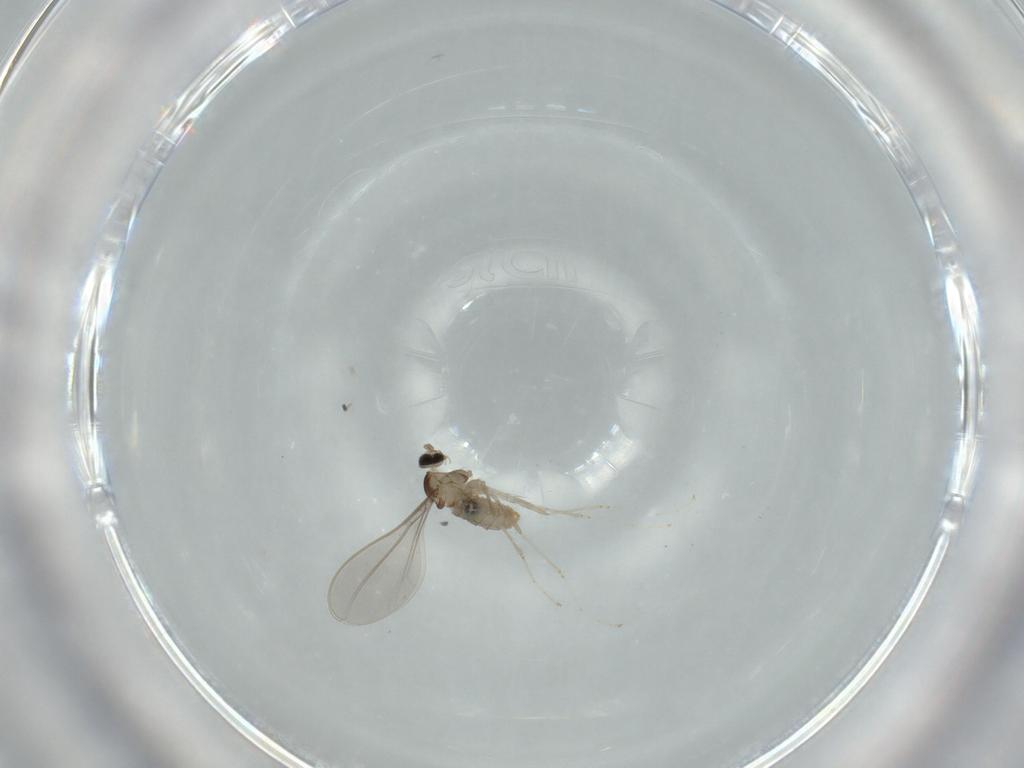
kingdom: Animalia
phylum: Arthropoda
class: Insecta
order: Diptera
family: Cecidomyiidae
